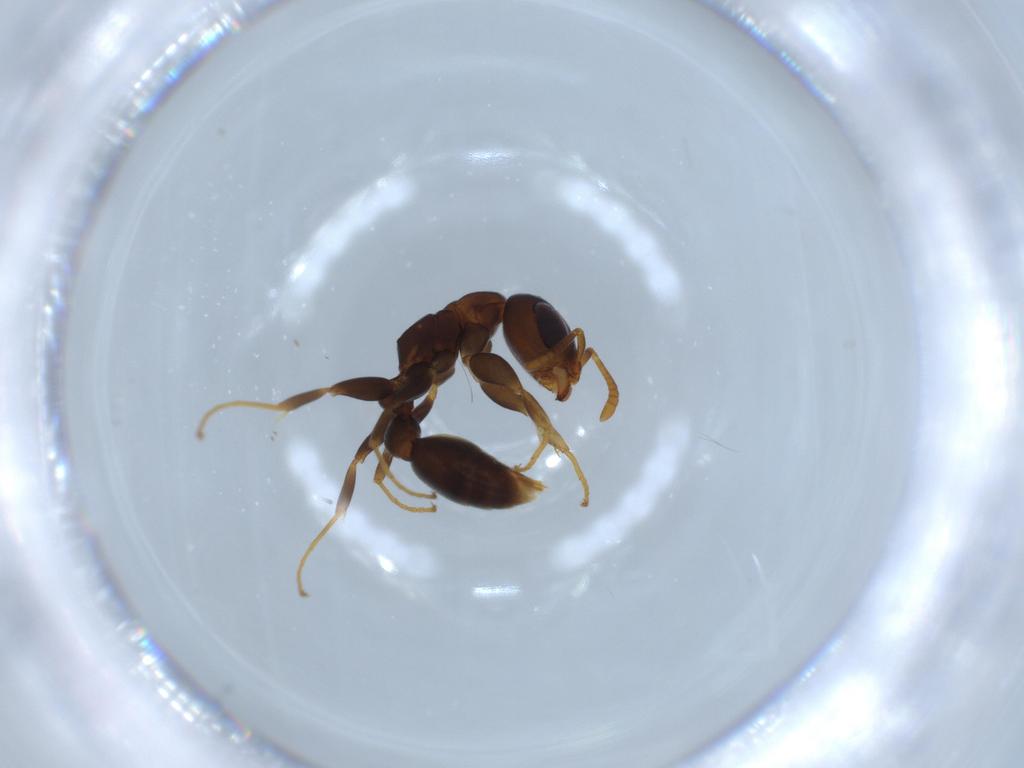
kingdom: Animalia
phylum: Arthropoda
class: Insecta
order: Hymenoptera
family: Formicidae
